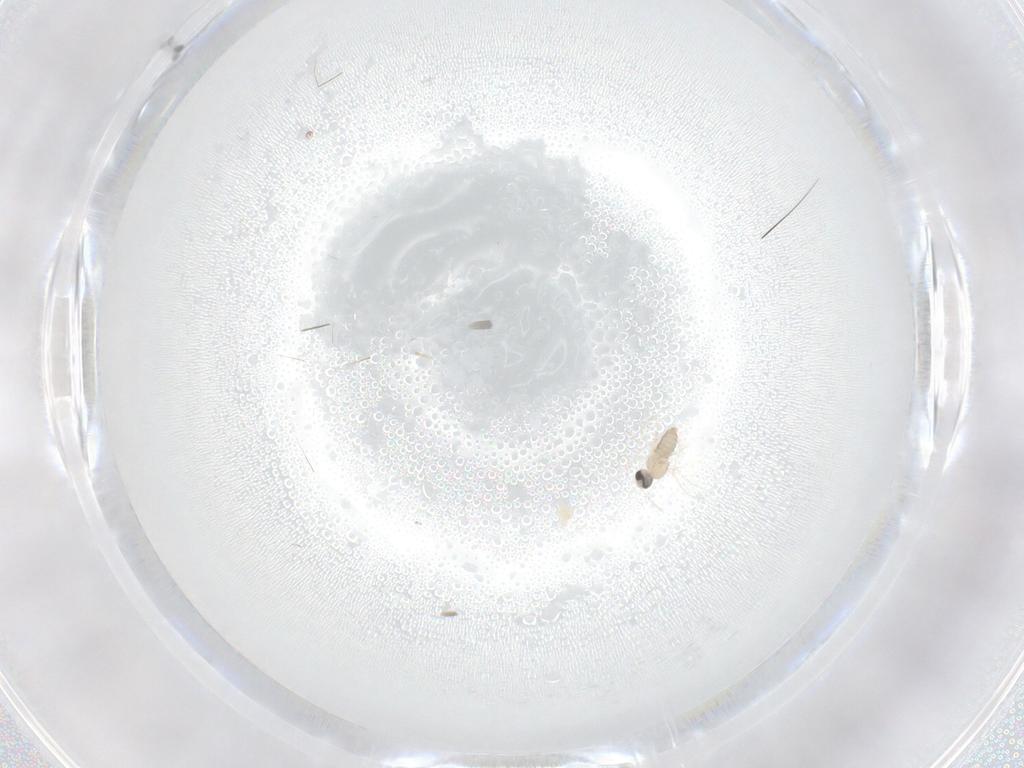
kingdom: Animalia
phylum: Arthropoda
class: Insecta
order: Diptera
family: Cecidomyiidae
